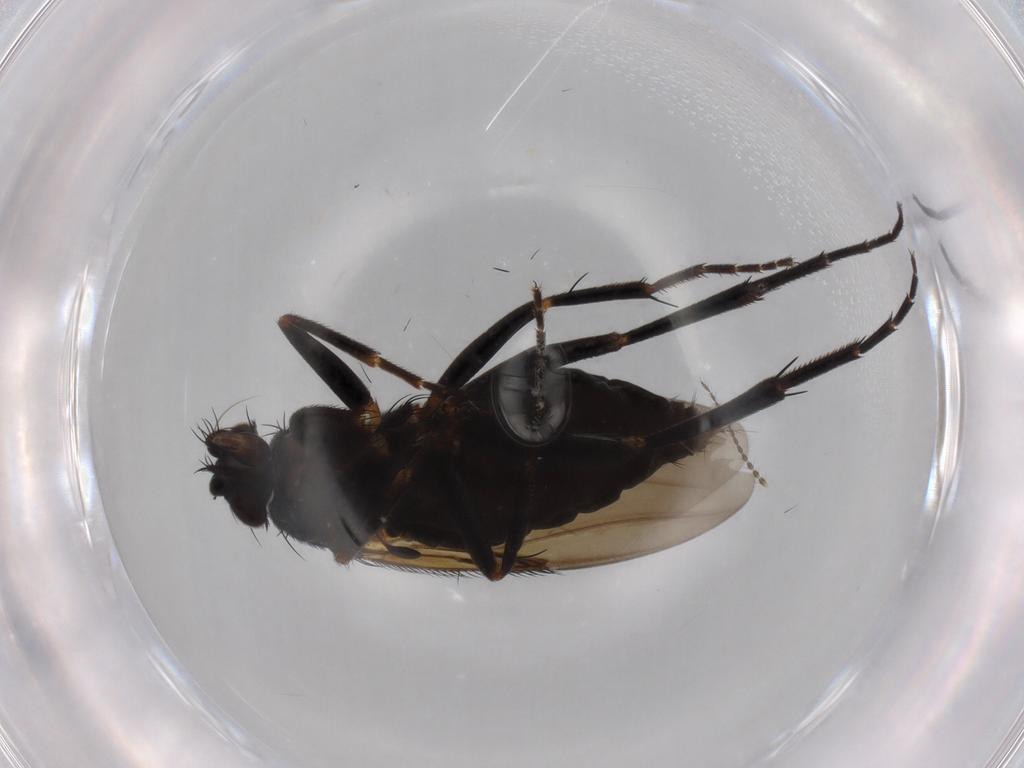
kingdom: Animalia
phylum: Arthropoda
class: Insecta
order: Diptera
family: Phoridae
